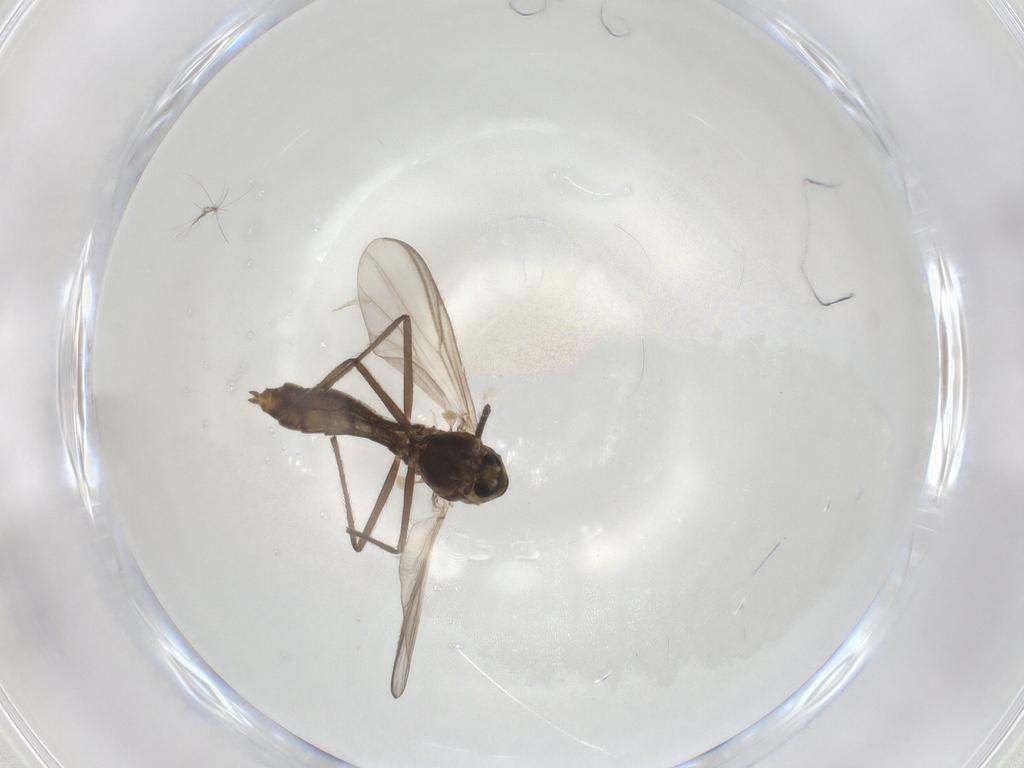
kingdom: Animalia
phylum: Arthropoda
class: Insecta
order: Diptera
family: Chironomidae
